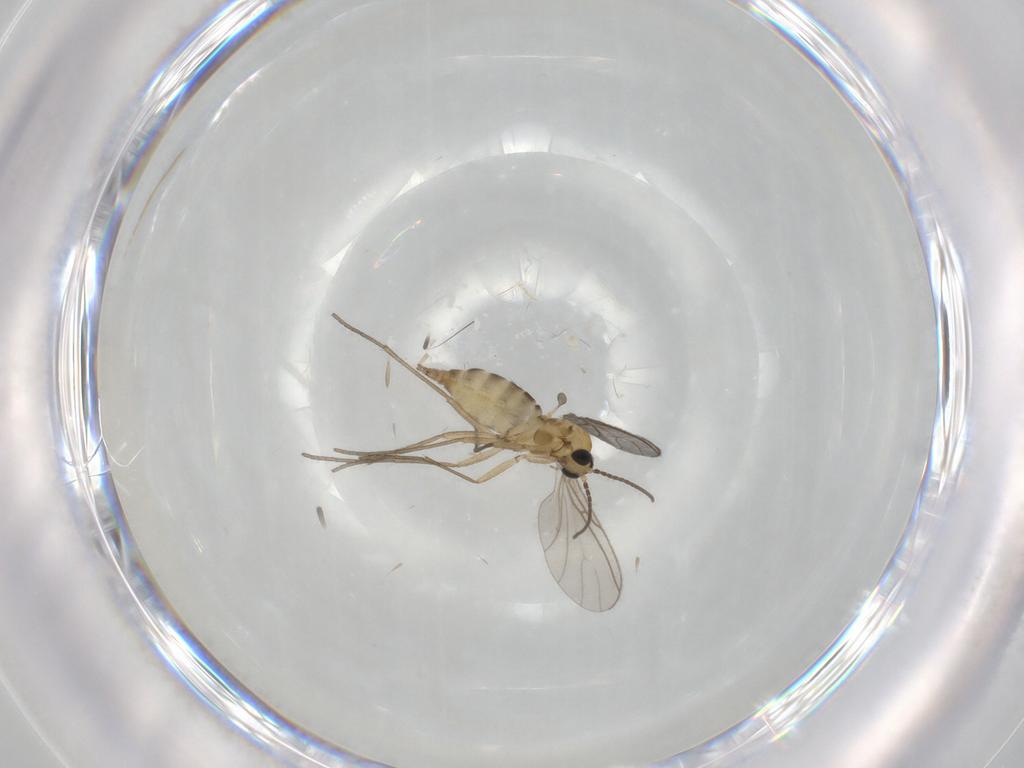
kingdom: Animalia
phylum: Arthropoda
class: Insecta
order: Diptera
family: Sciaridae
